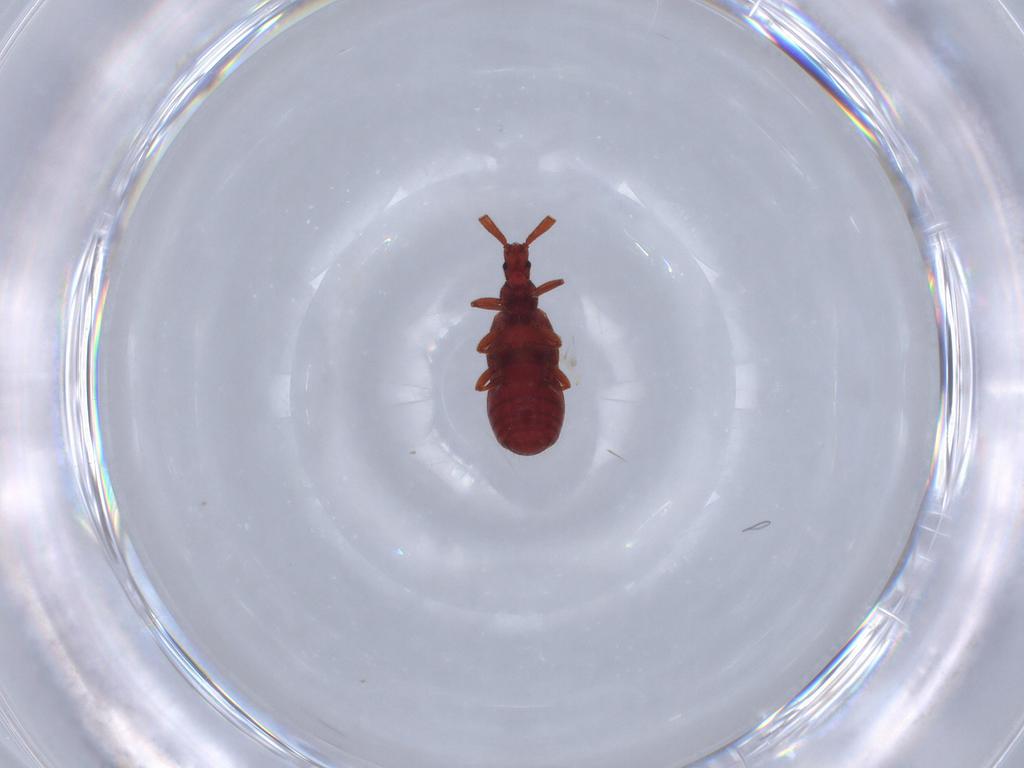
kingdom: Animalia
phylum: Arthropoda
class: Insecta
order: Coleoptera
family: Staphylinidae
